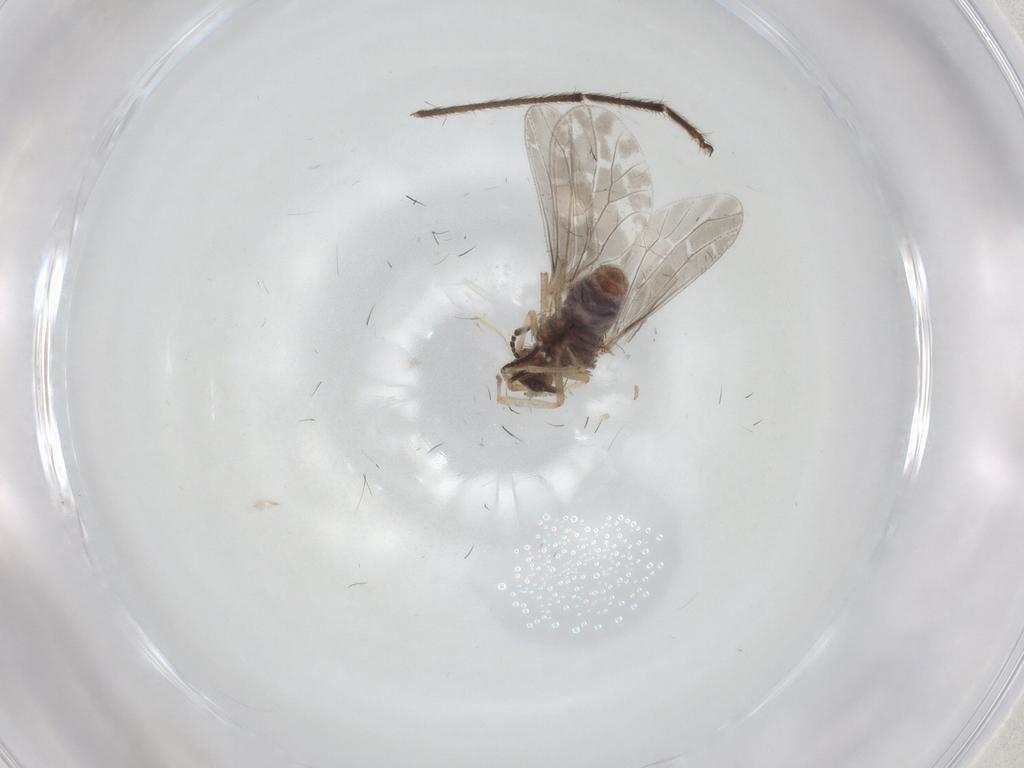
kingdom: Animalia
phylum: Arthropoda
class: Insecta
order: Neuroptera
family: Coniopterygidae
